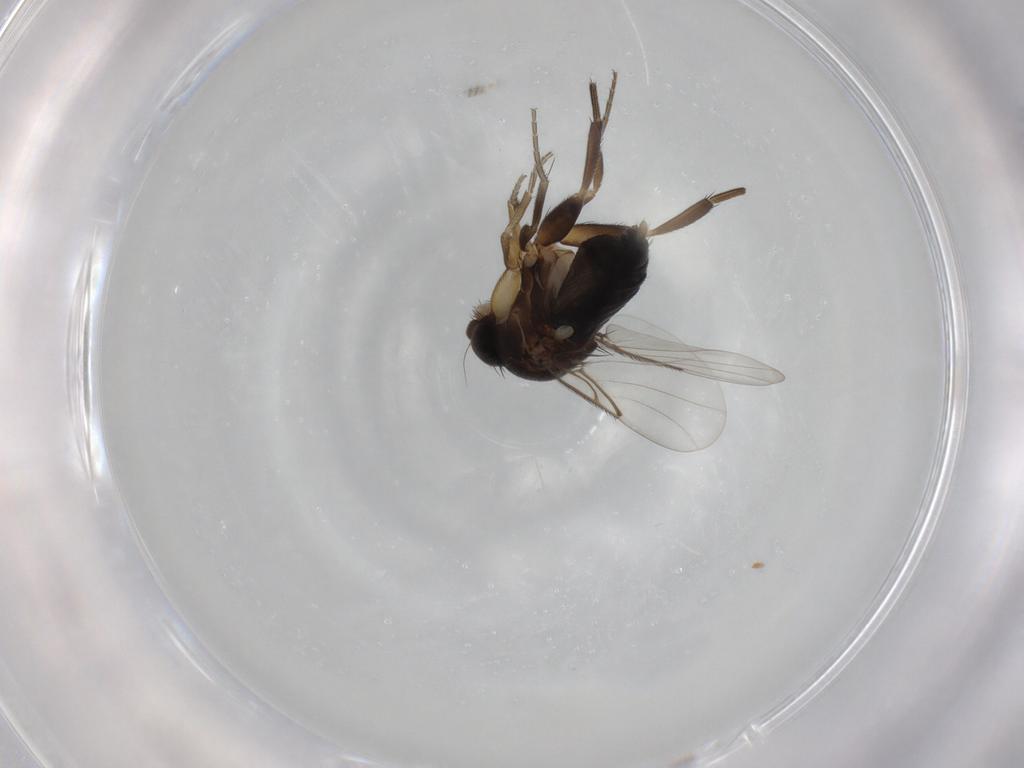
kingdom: Animalia
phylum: Arthropoda
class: Insecta
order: Diptera
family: Phoridae
